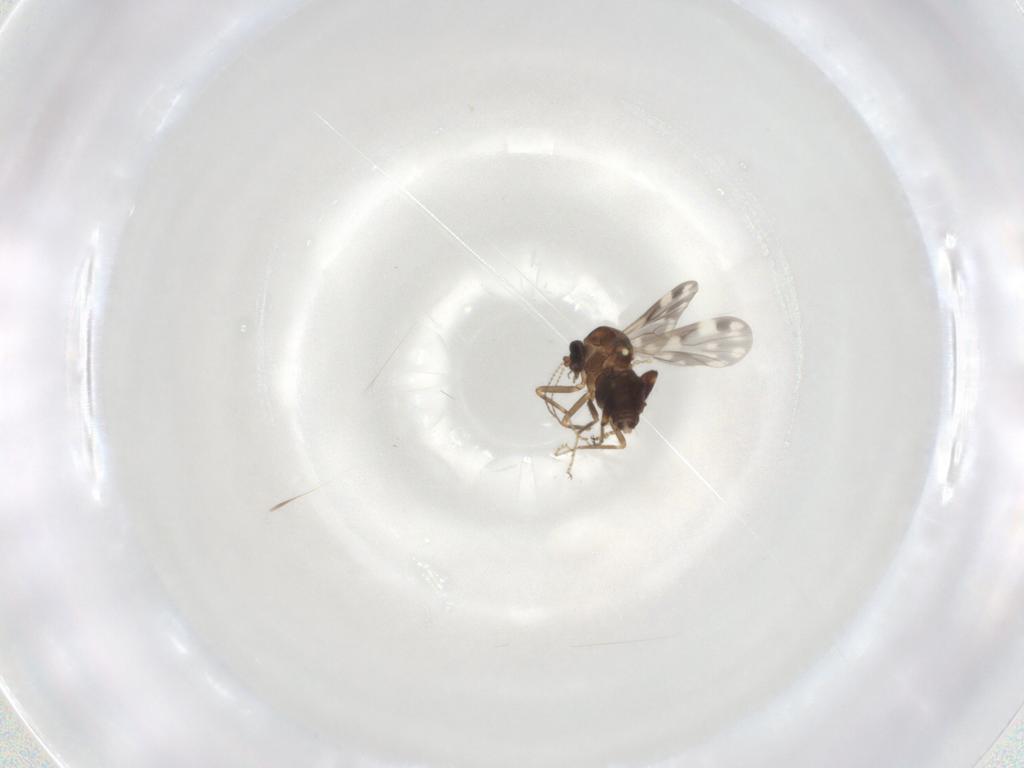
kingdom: Animalia
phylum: Arthropoda
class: Insecta
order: Diptera
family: Ceratopogonidae
